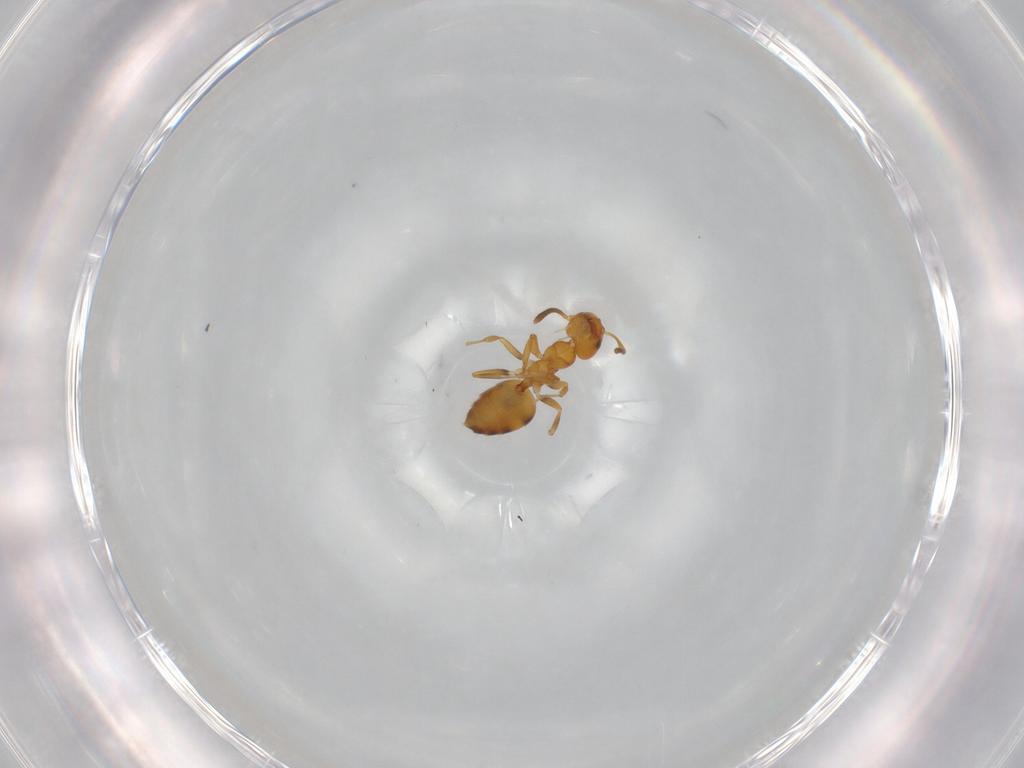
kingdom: Animalia
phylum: Arthropoda
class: Insecta
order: Hymenoptera
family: Formicidae
